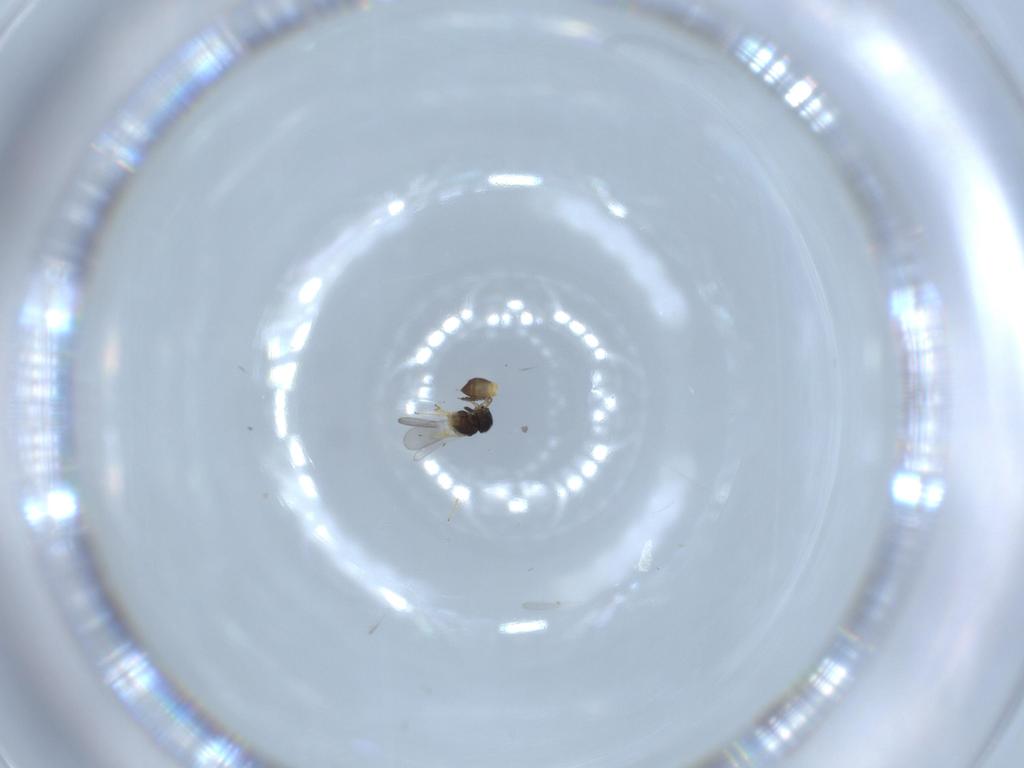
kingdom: Animalia
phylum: Arthropoda
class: Insecta
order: Hymenoptera
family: Scelionidae
